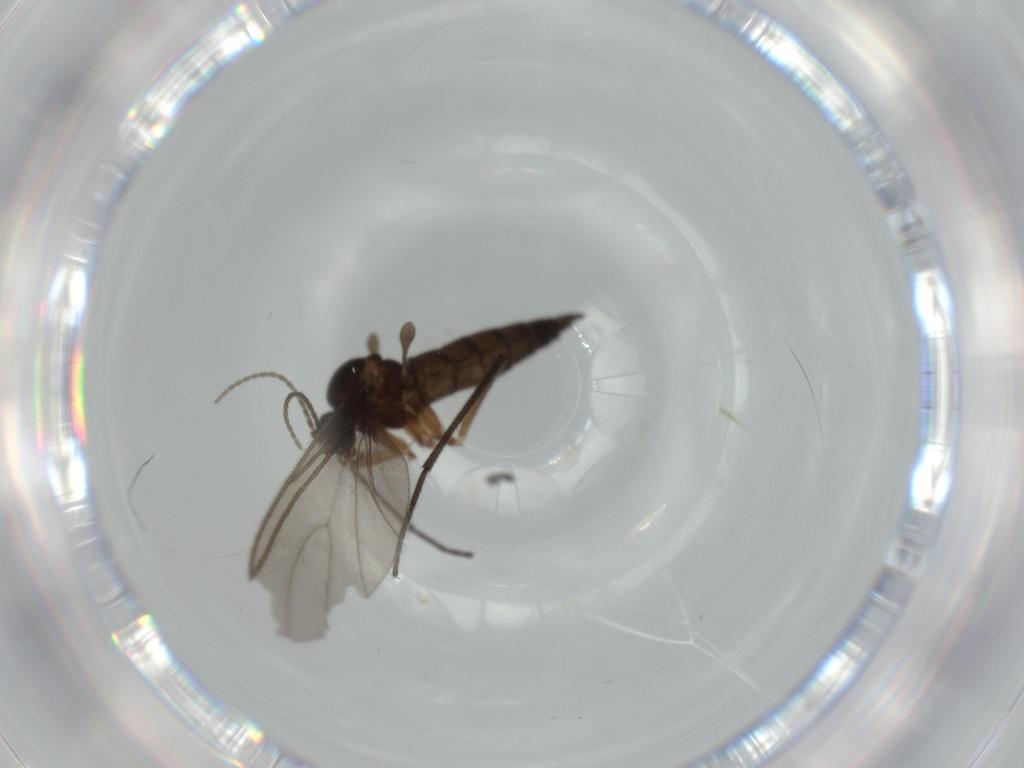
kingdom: Animalia
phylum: Arthropoda
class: Insecta
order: Diptera
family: Sciaridae
